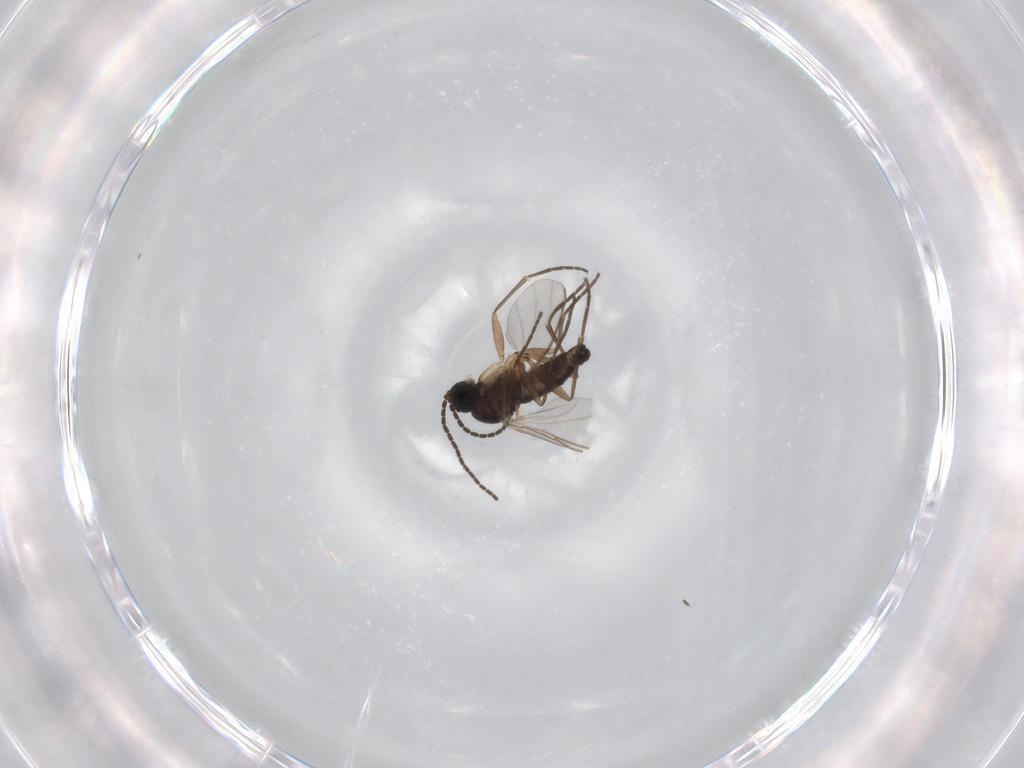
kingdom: Animalia
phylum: Arthropoda
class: Insecta
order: Diptera
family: Sciaridae
